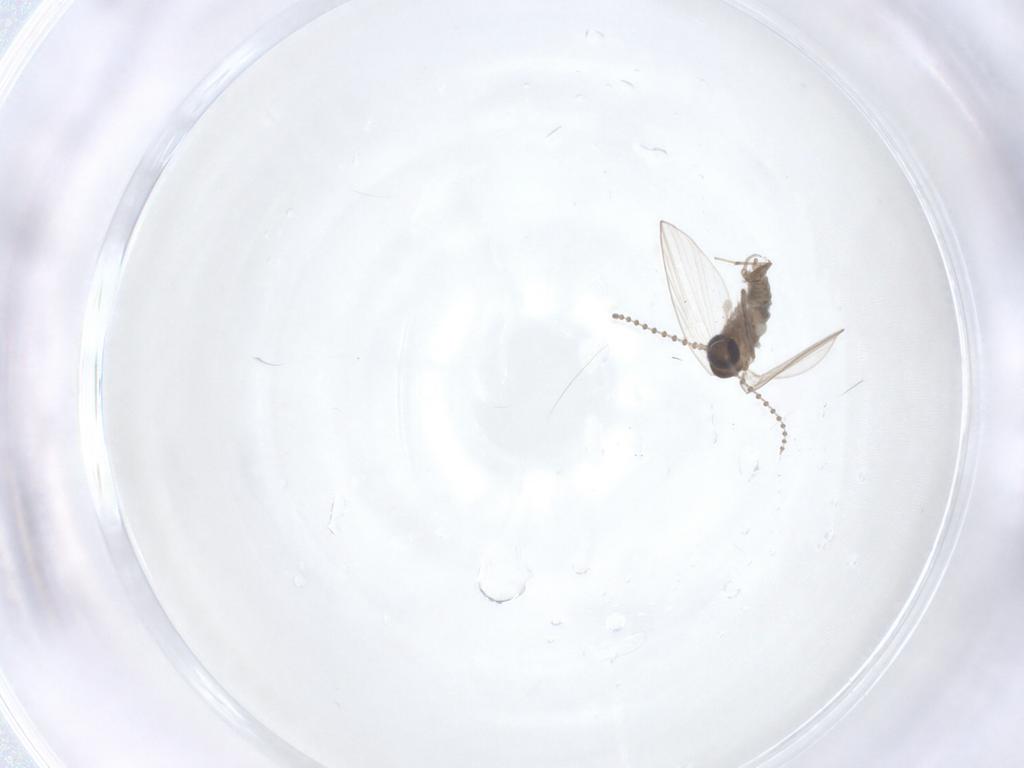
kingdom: Animalia
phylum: Arthropoda
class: Insecta
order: Diptera
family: Psychodidae
